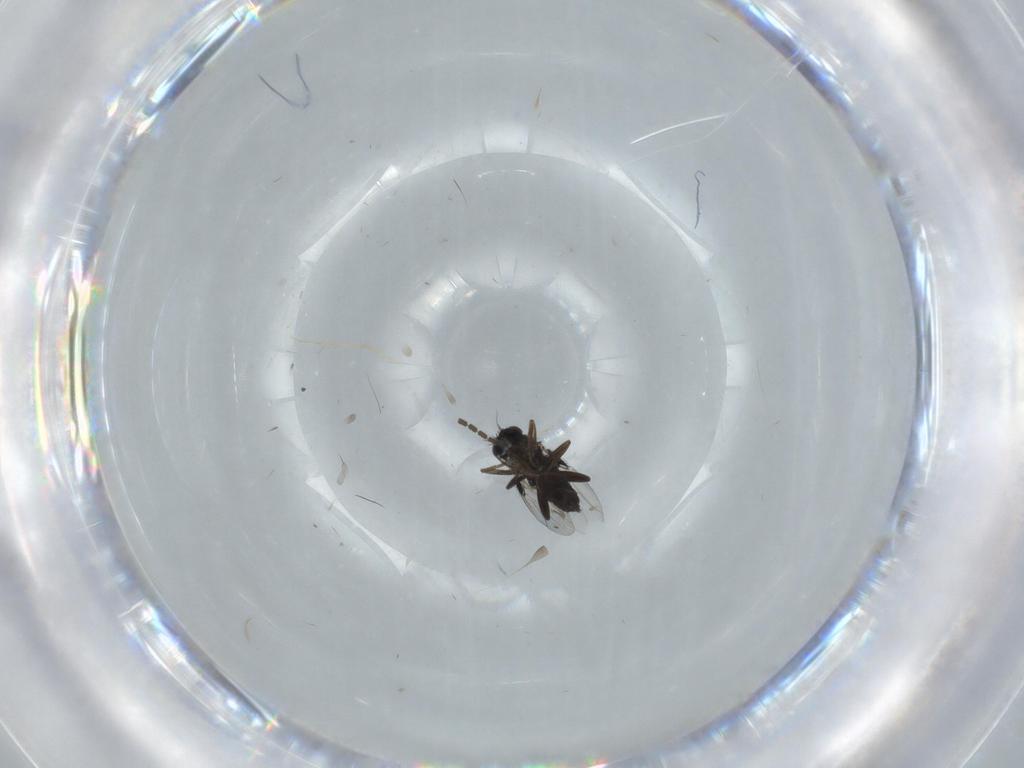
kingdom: Animalia
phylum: Arthropoda
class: Insecta
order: Diptera
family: Phoridae
